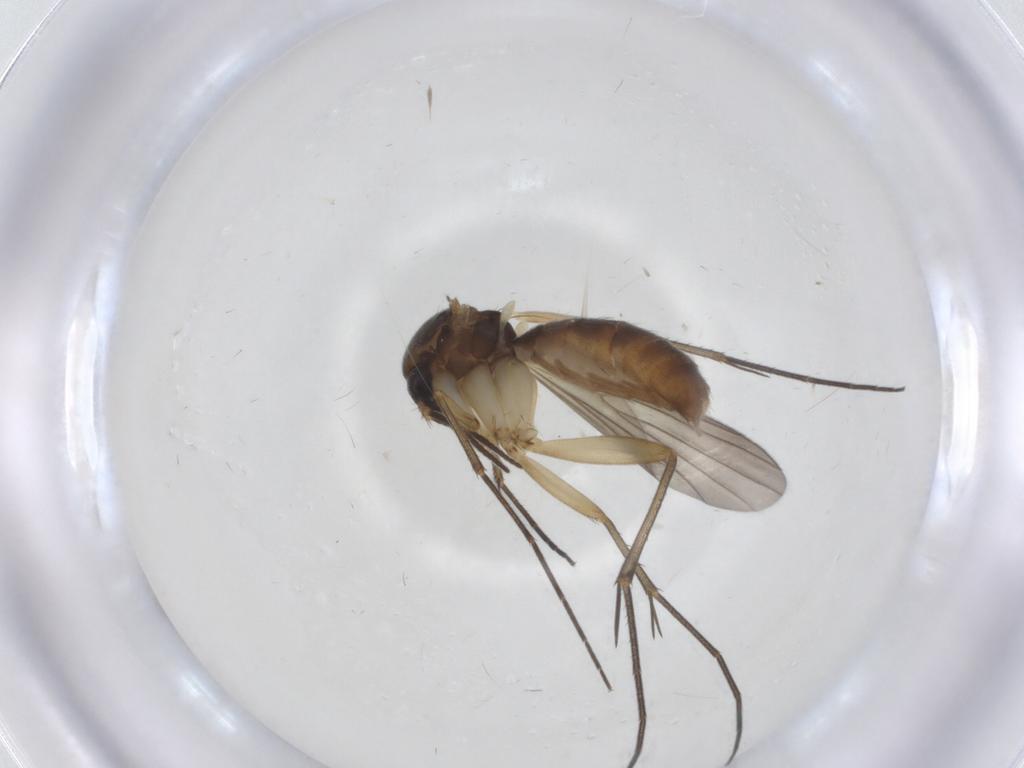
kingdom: Animalia
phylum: Arthropoda
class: Insecta
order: Diptera
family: Mycetophilidae
